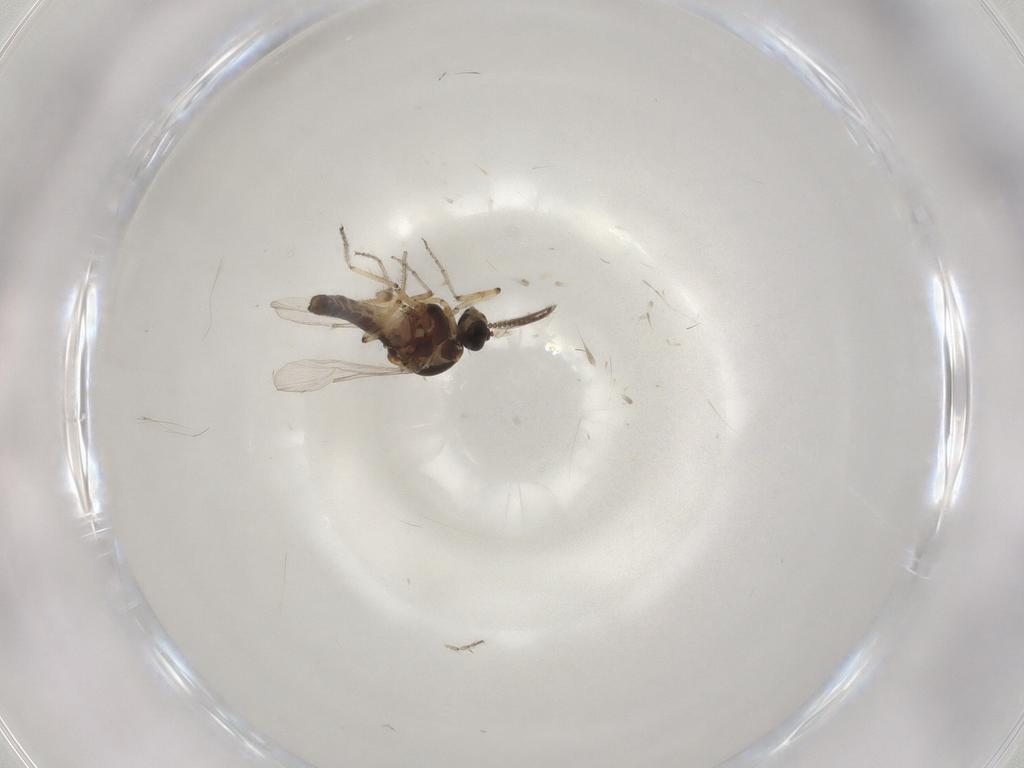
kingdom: Animalia
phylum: Arthropoda
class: Insecta
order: Diptera
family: Ceratopogonidae
